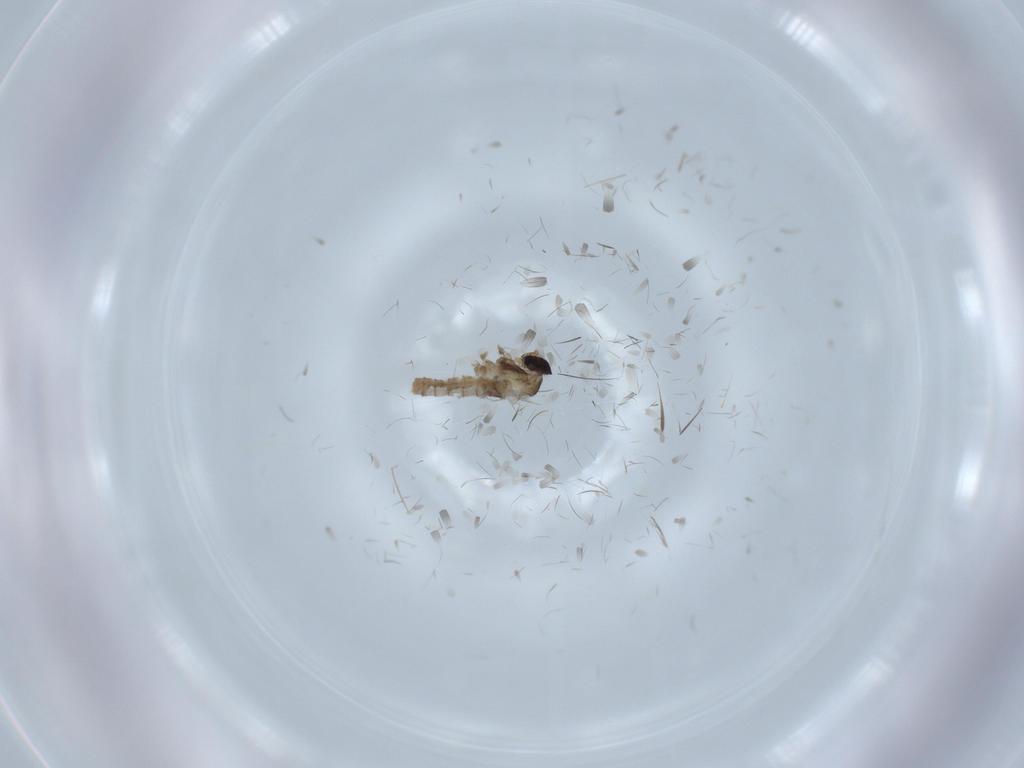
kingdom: Animalia
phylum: Arthropoda
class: Insecta
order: Diptera
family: Cecidomyiidae
